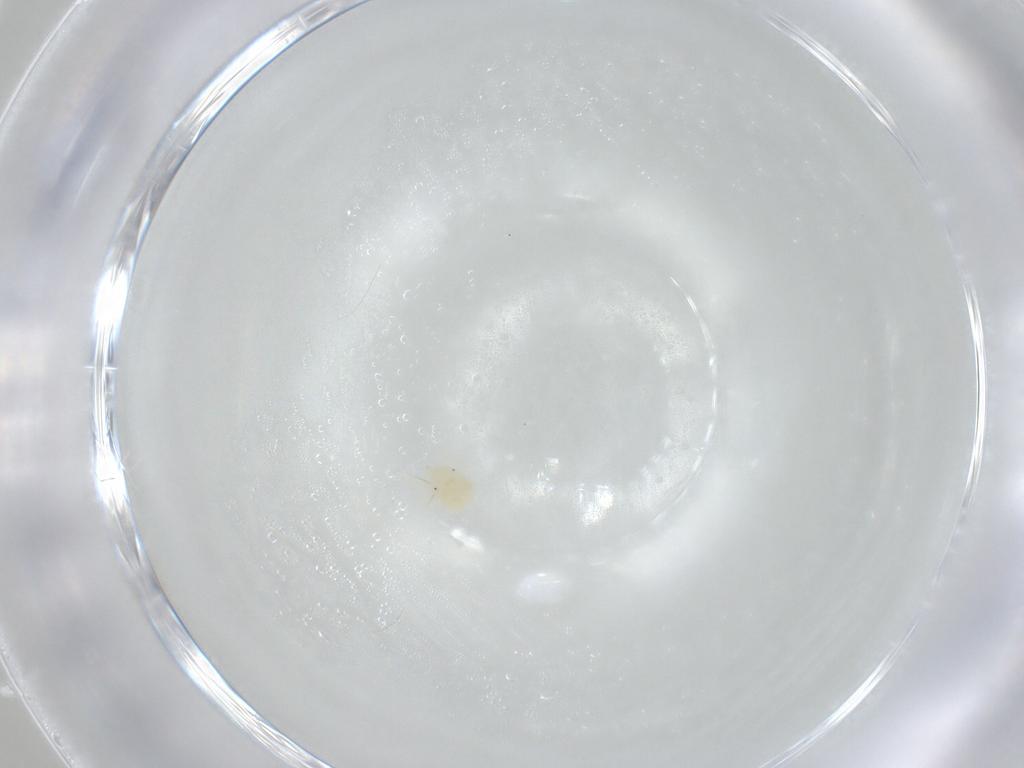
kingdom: Animalia
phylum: Arthropoda
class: Arachnida
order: Trombidiformes
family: Anystidae
